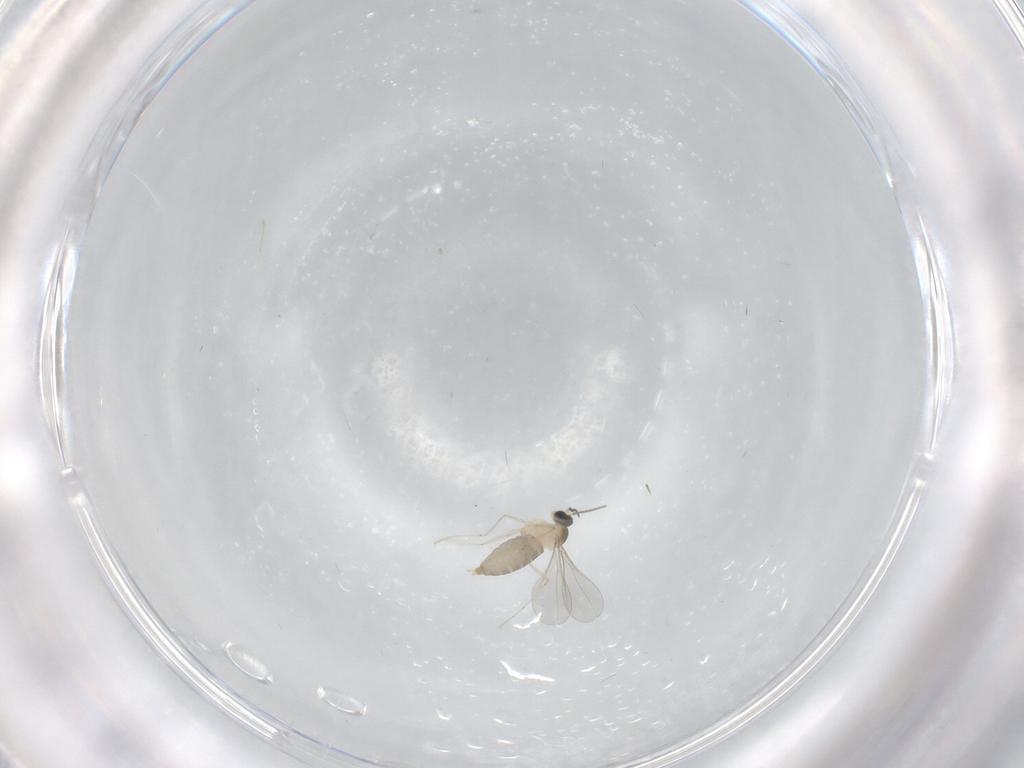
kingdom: Animalia
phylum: Arthropoda
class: Insecta
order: Diptera
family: Cecidomyiidae
